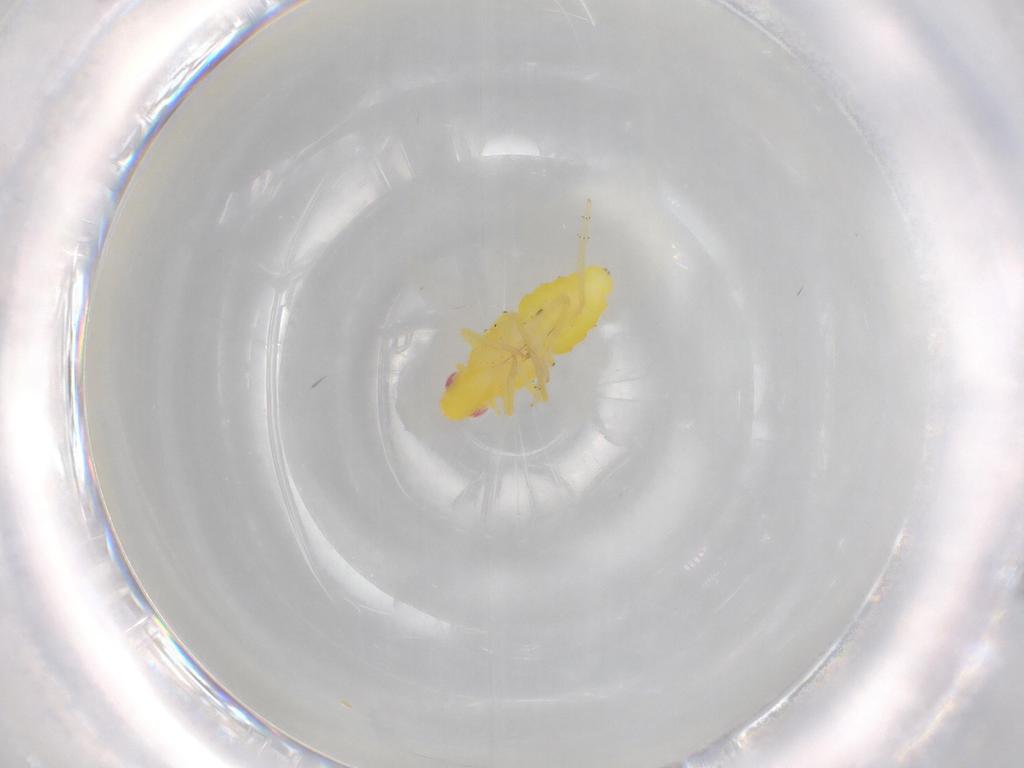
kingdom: Animalia
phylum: Arthropoda
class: Insecta
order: Hemiptera
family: Tropiduchidae
